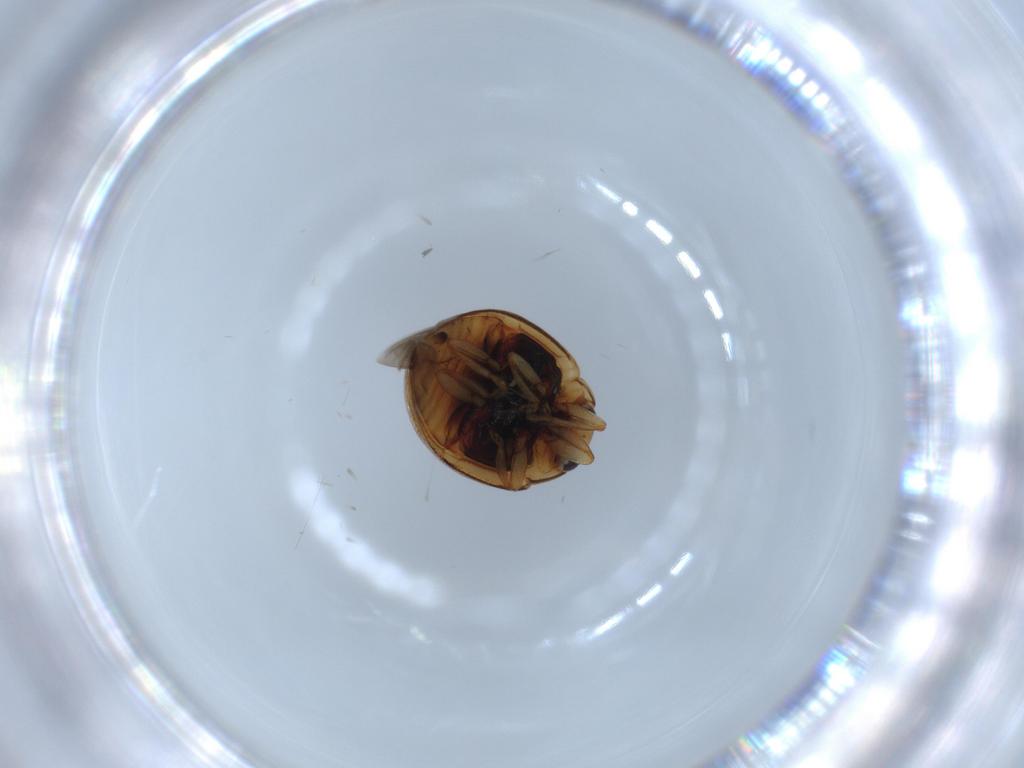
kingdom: Animalia
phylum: Arthropoda
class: Insecta
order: Coleoptera
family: Coccinellidae
